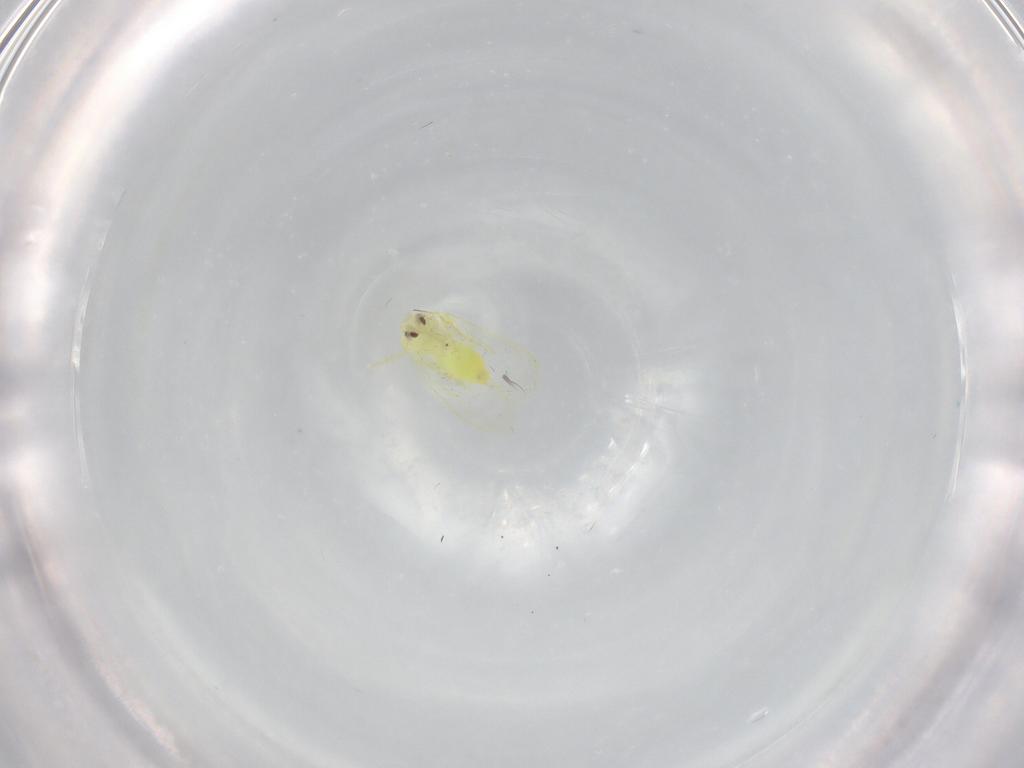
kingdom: Animalia
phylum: Arthropoda
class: Insecta
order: Hemiptera
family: Aleyrodidae
